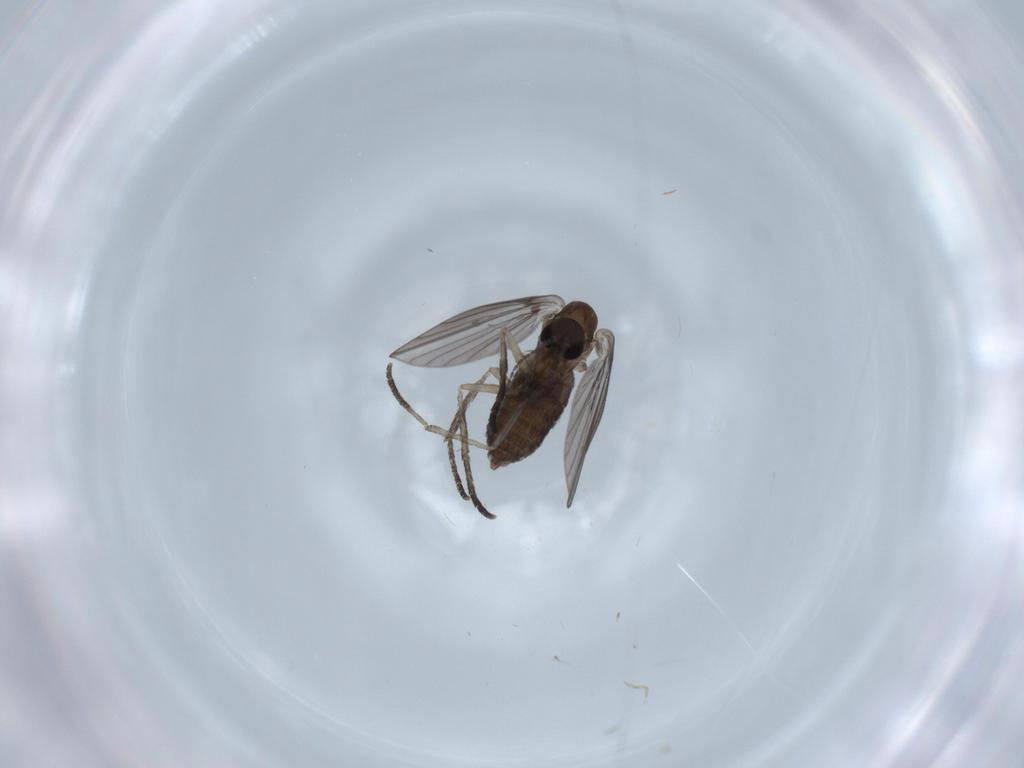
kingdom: Animalia
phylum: Arthropoda
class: Insecta
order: Diptera
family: Psychodidae
